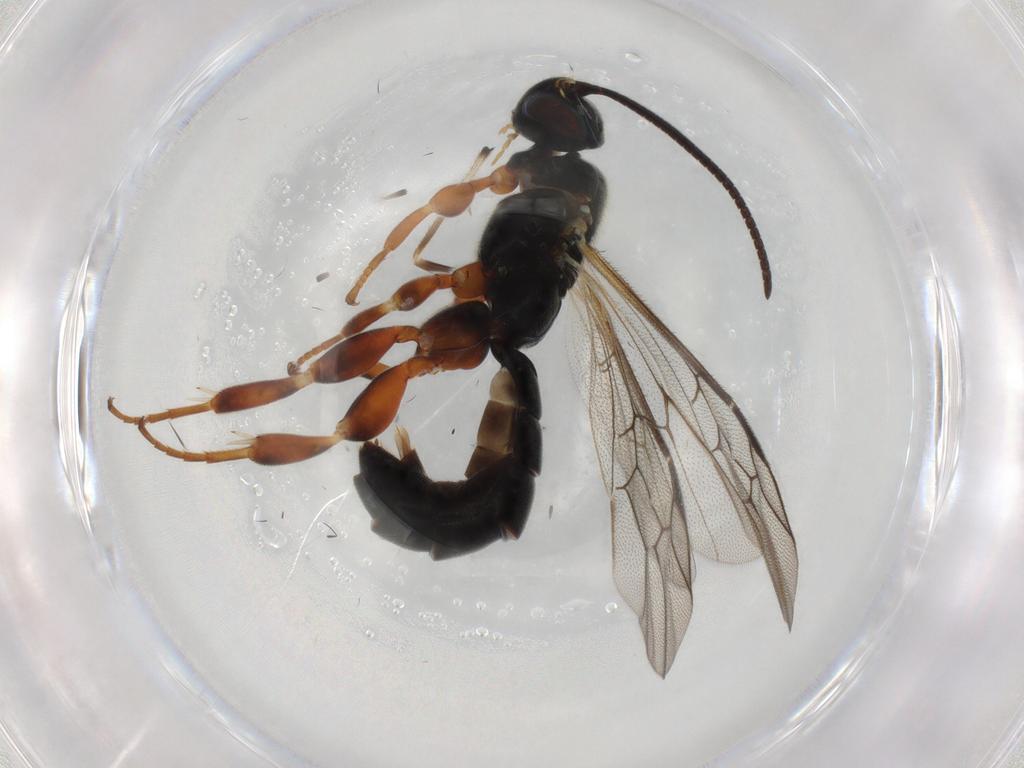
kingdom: Animalia
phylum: Arthropoda
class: Insecta
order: Hymenoptera
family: Ichneumonidae
